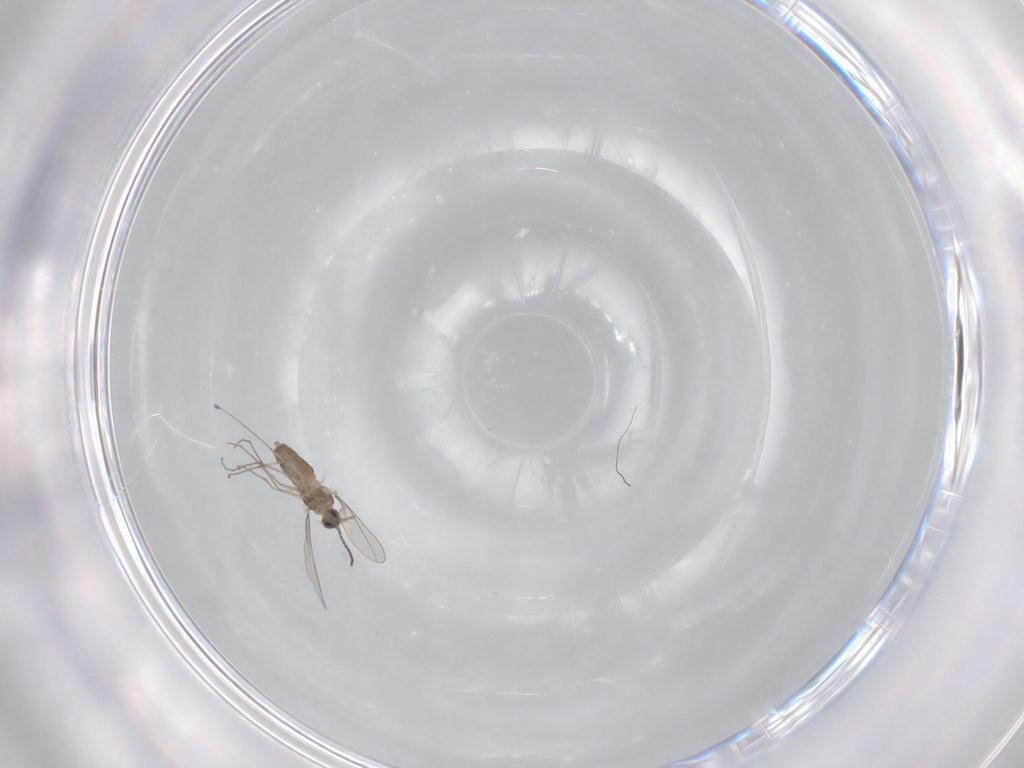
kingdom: Animalia
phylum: Arthropoda
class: Insecta
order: Diptera
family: Cecidomyiidae
